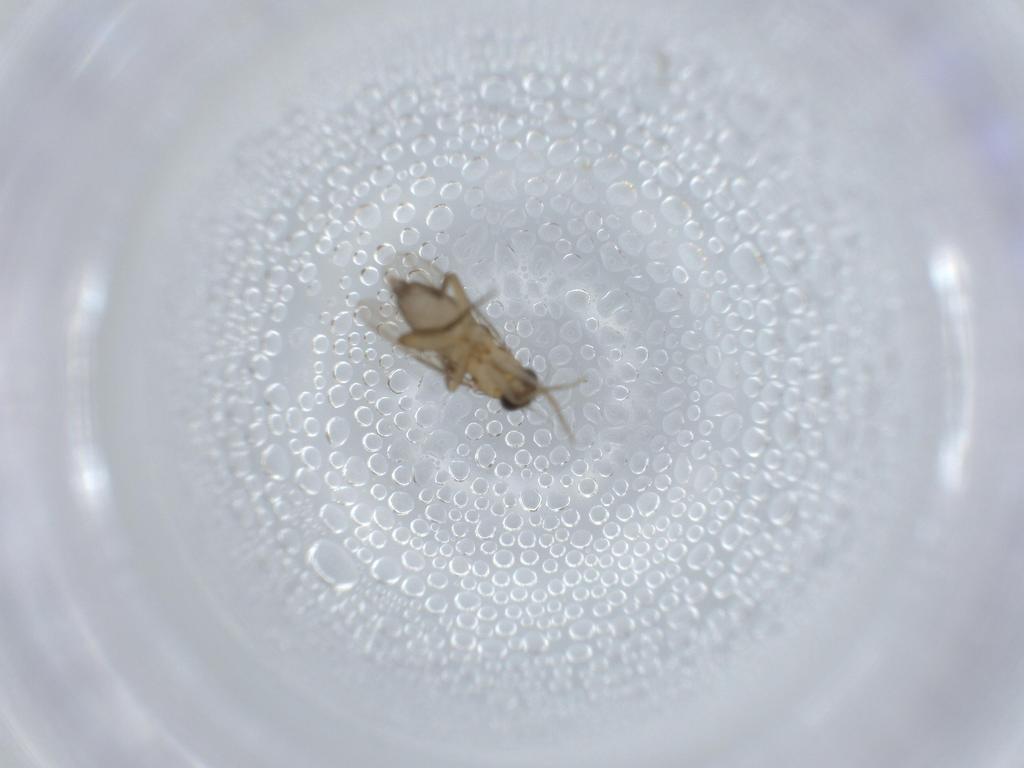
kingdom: Animalia
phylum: Arthropoda
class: Insecta
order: Diptera
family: Phoridae
